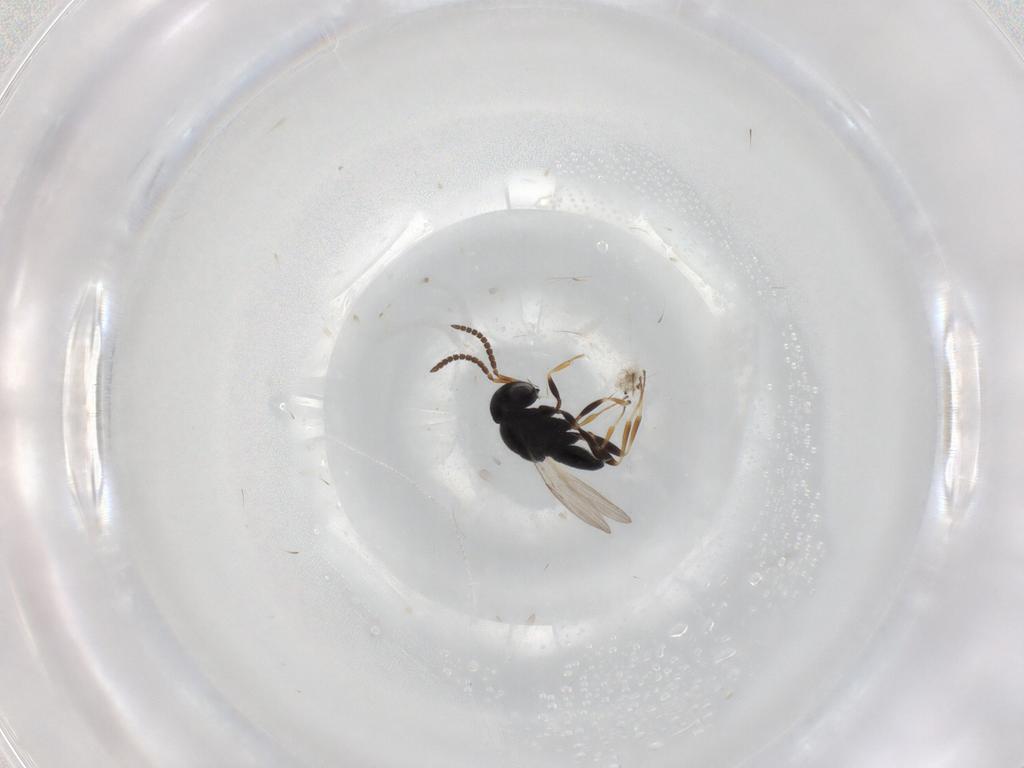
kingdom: Animalia
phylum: Arthropoda
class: Insecta
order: Coleoptera
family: Curculionidae
